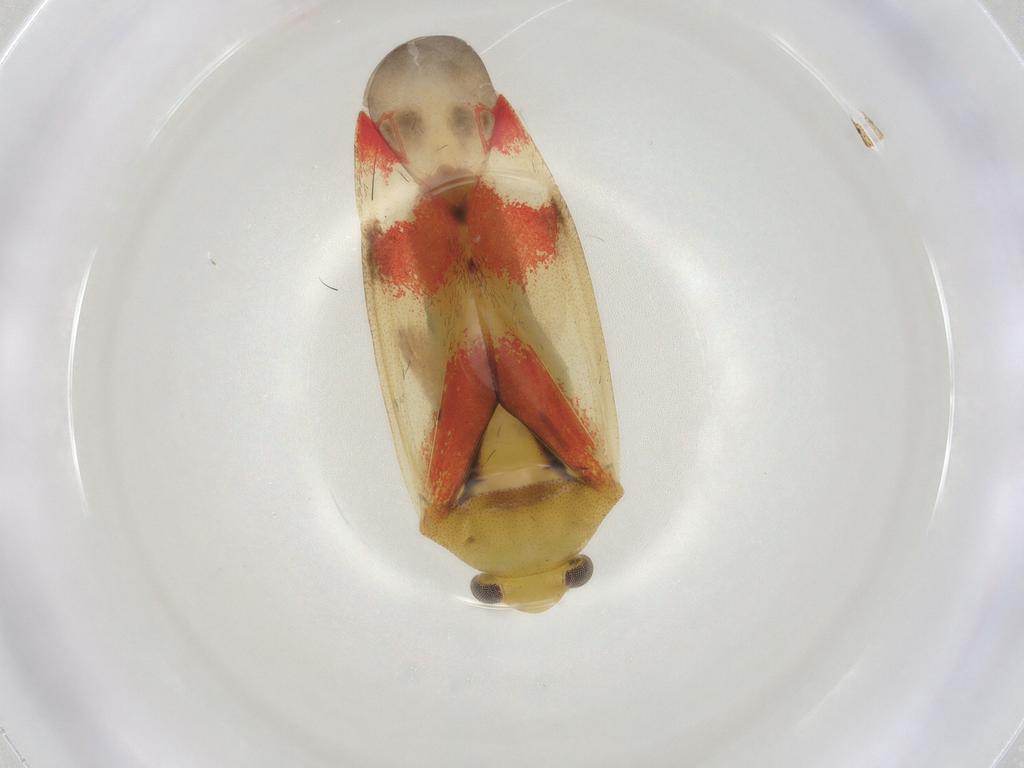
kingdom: Animalia
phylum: Arthropoda
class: Insecta
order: Hemiptera
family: Miridae
